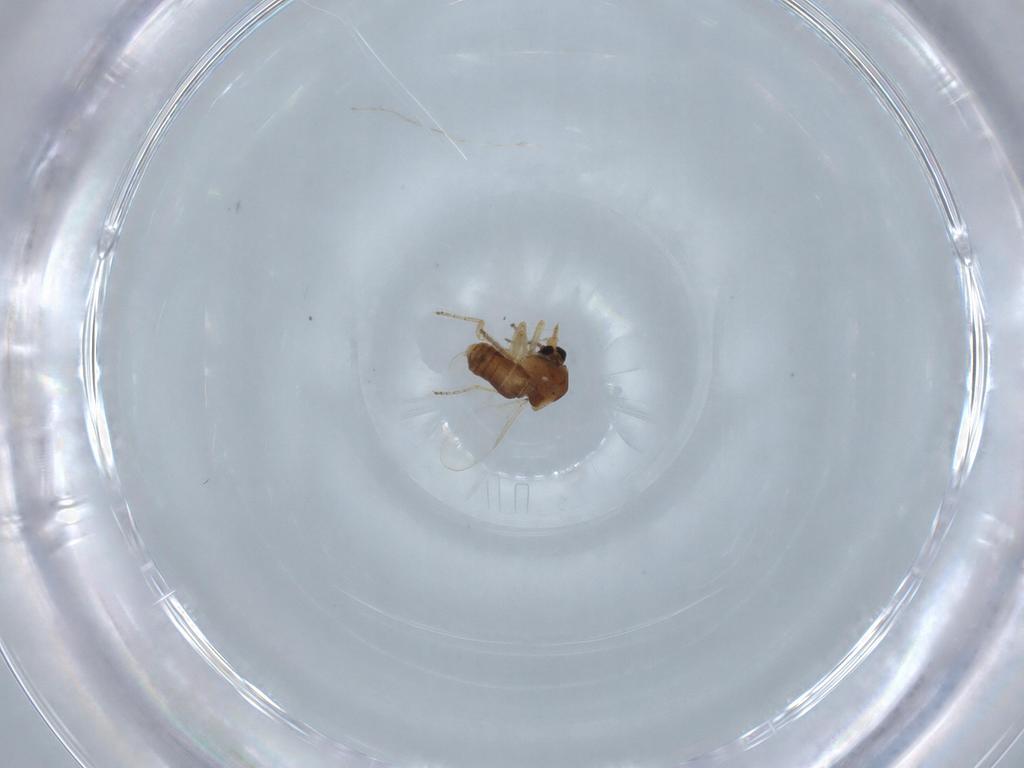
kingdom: Animalia
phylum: Arthropoda
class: Insecta
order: Diptera
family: Ceratopogonidae
